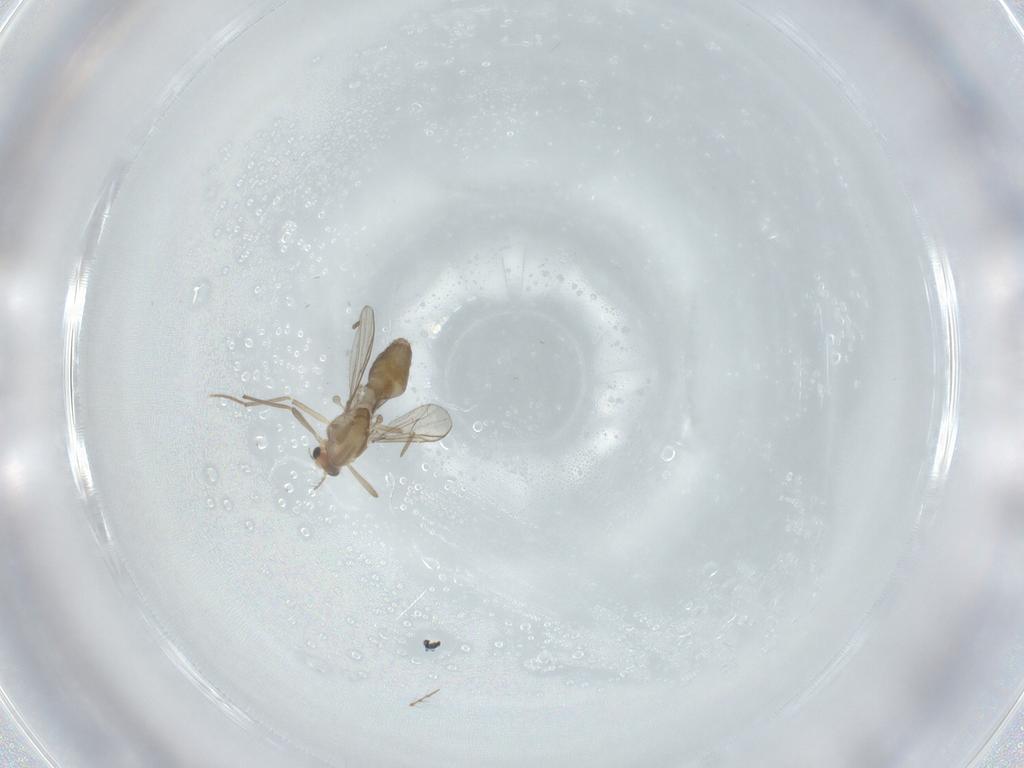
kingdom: Animalia
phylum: Arthropoda
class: Insecta
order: Diptera
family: Chironomidae
